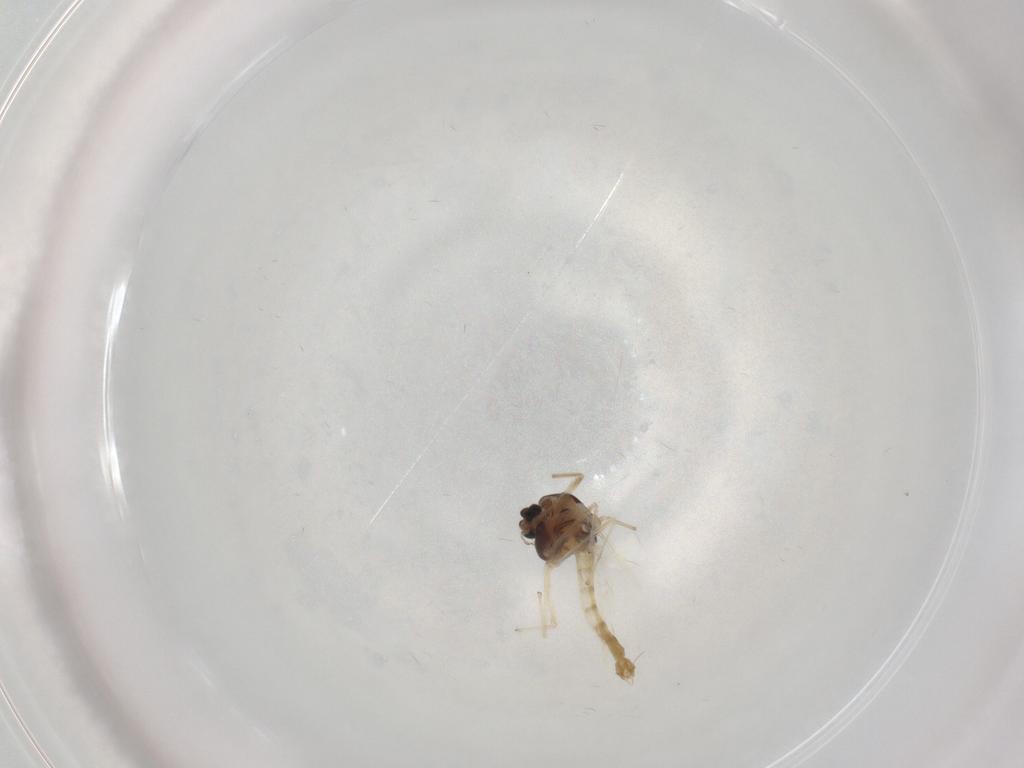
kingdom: Animalia
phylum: Arthropoda
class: Insecta
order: Diptera
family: Chironomidae
